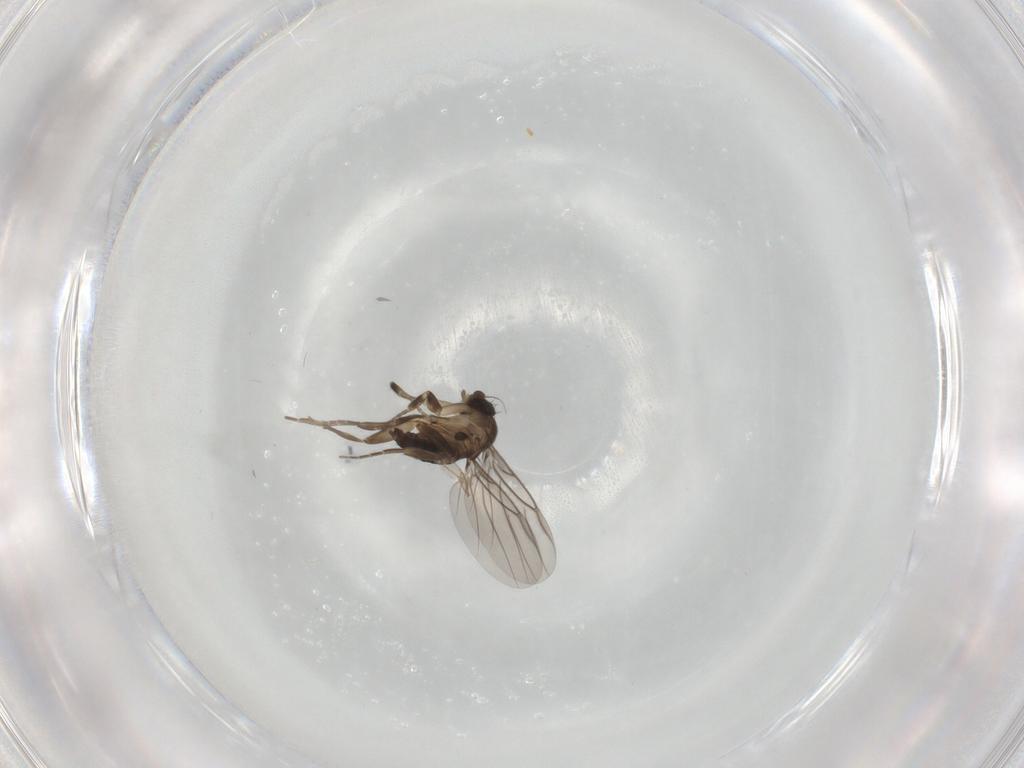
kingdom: Animalia
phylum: Arthropoda
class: Insecta
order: Diptera
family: Phoridae
